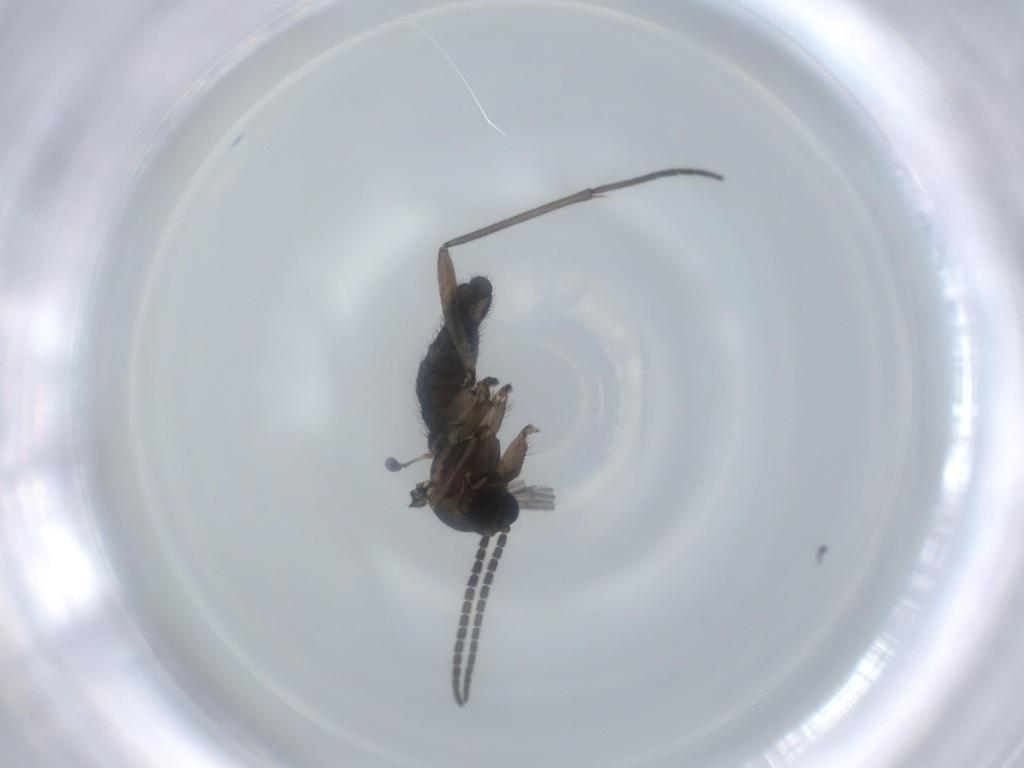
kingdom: Animalia
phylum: Arthropoda
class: Insecta
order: Diptera
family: Sciaridae
